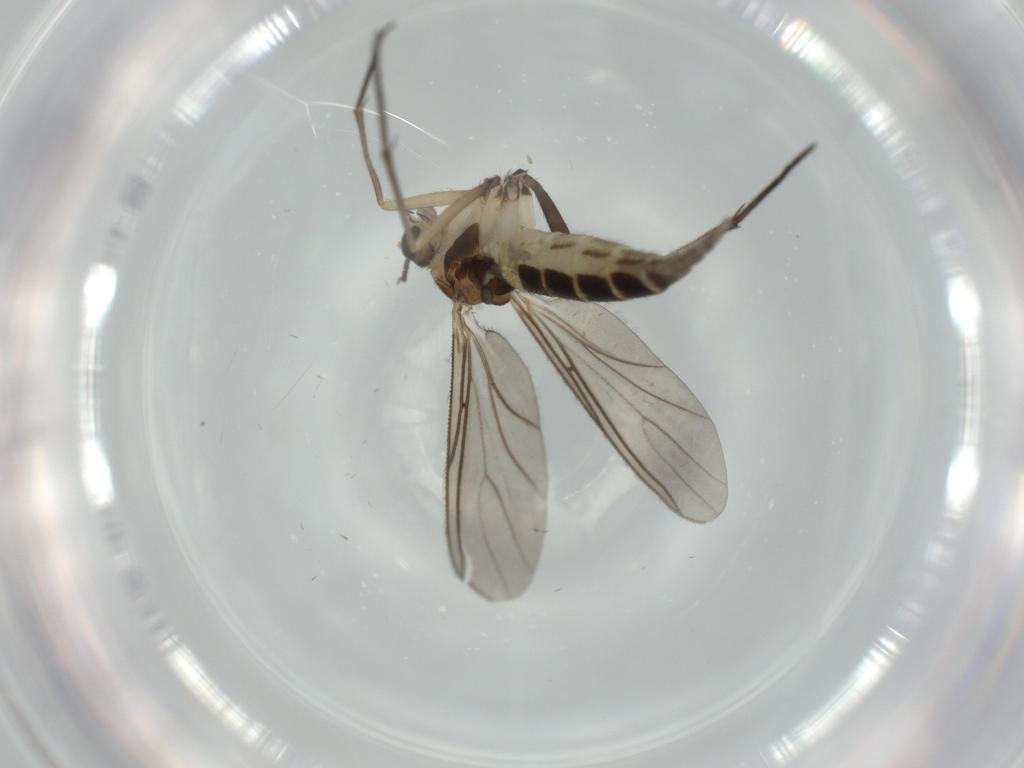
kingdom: Animalia
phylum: Arthropoda
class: Insecta
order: Diptera
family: Sciaridae
